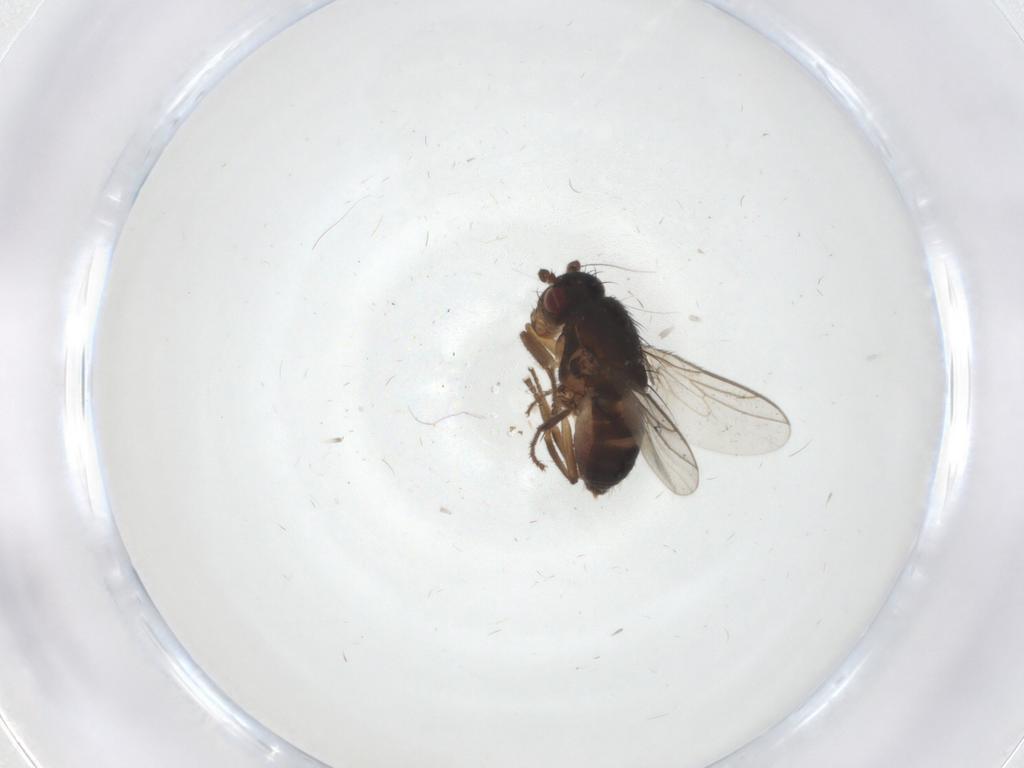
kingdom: Animalia
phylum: Arthropoda
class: Insecta
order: Diptera
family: Sphaeroceridae
